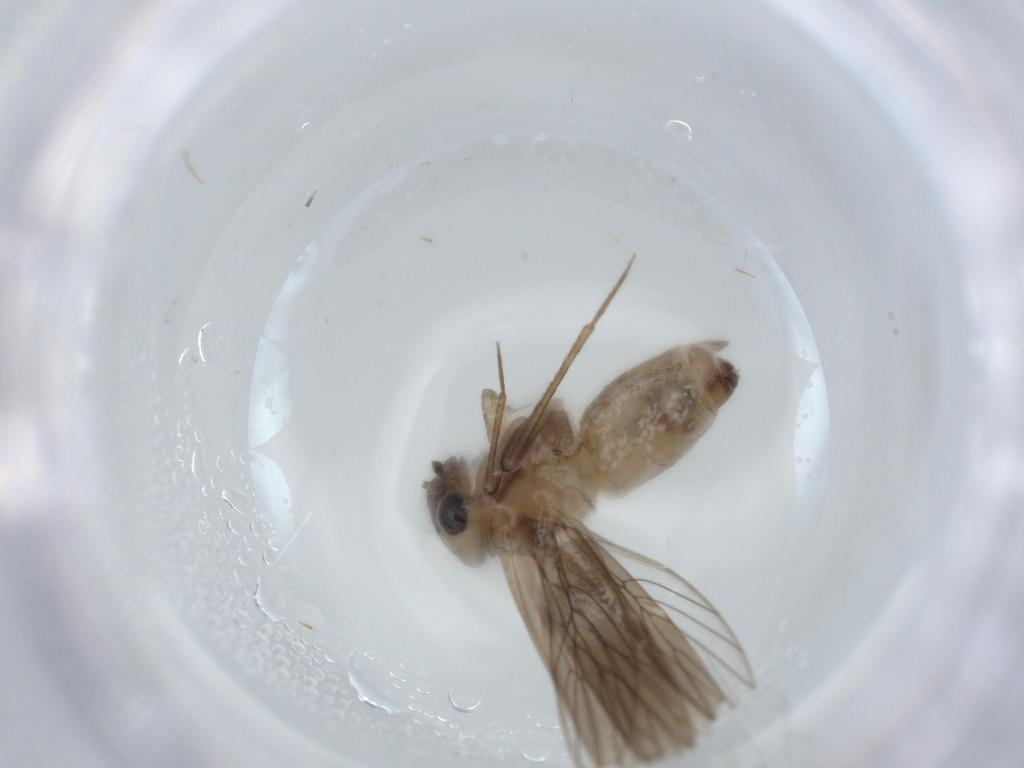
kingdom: Animalia
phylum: Arthropoda
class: Insecta
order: Psocodea
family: Lepidopsocidae
